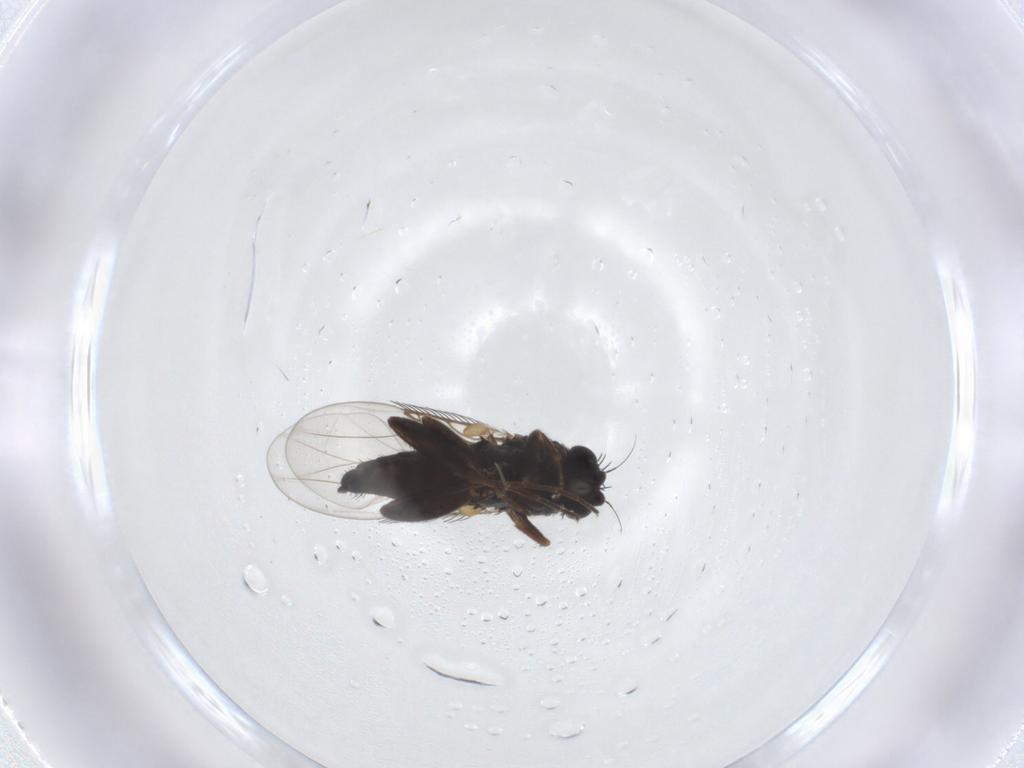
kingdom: Animalia
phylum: Arthropoda
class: Insecta
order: Diptera
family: Phoridae
